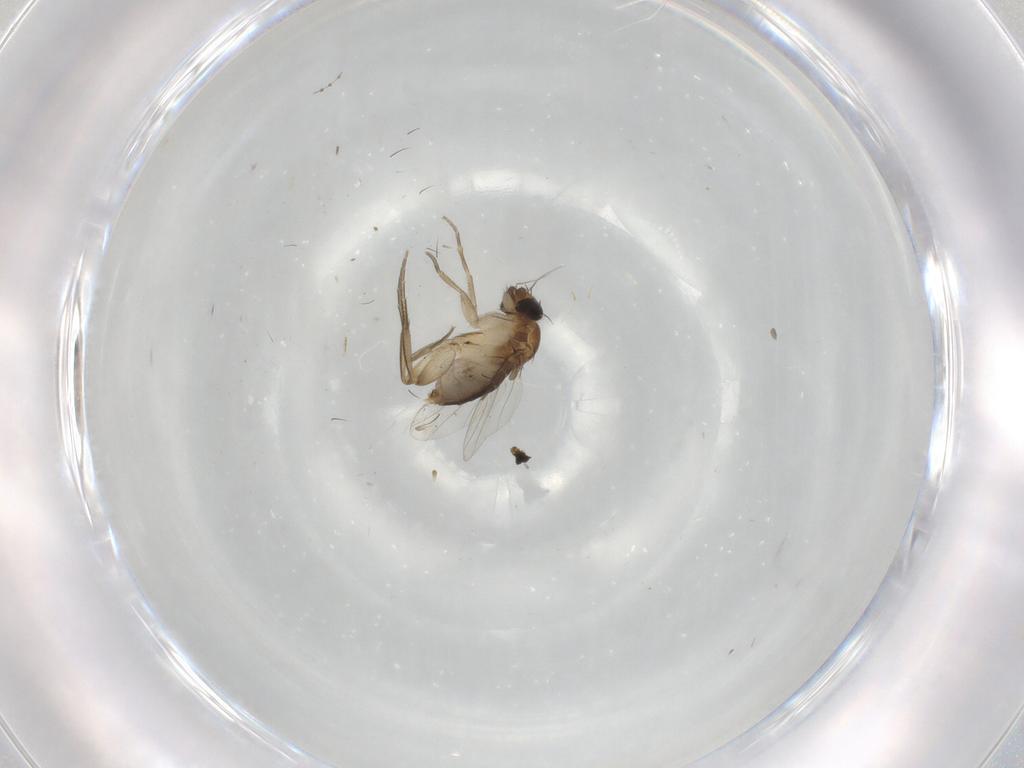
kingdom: Animalia
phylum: Arthropoda
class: Insecta
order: Diptera
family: Phoridae
